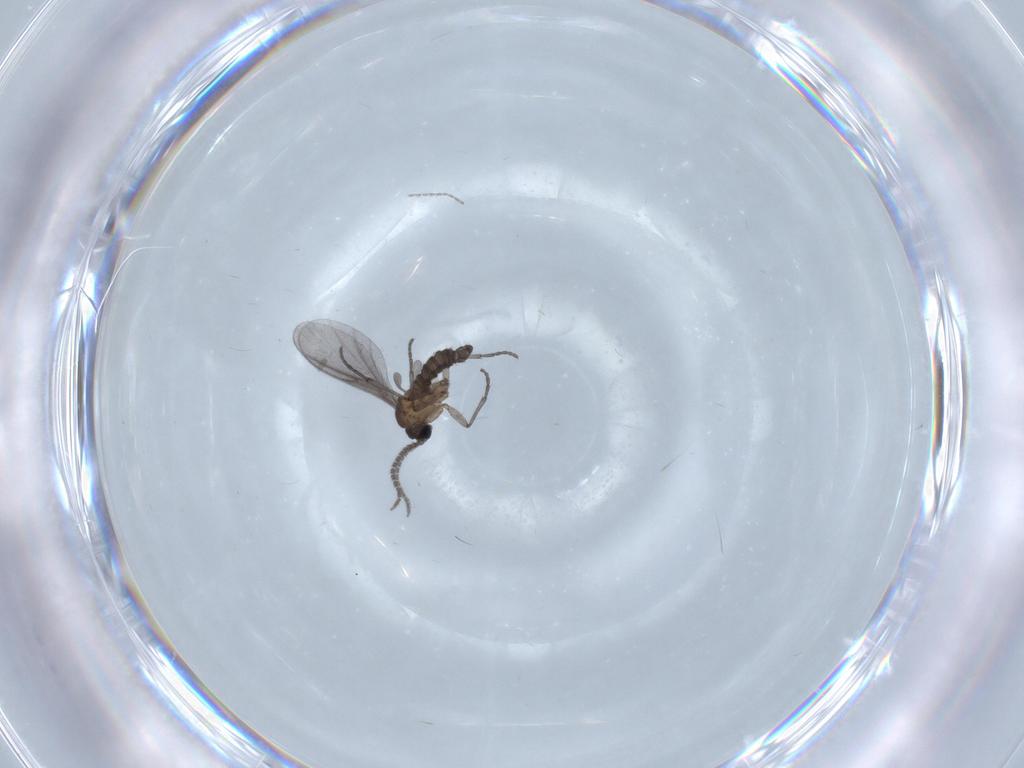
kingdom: Animalia
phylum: Arthropoda
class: Insecta
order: Diptera
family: Sciaridae
